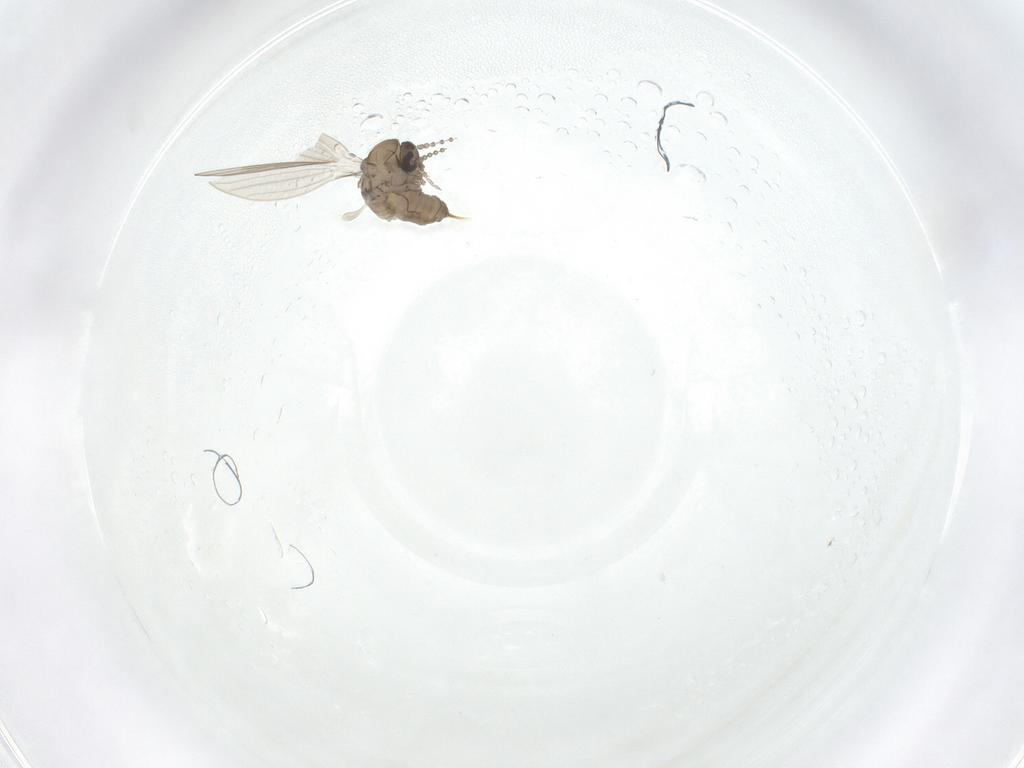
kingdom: Animalia
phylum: Arthropoda
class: Insecta
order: Diptera
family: Psychodidae
